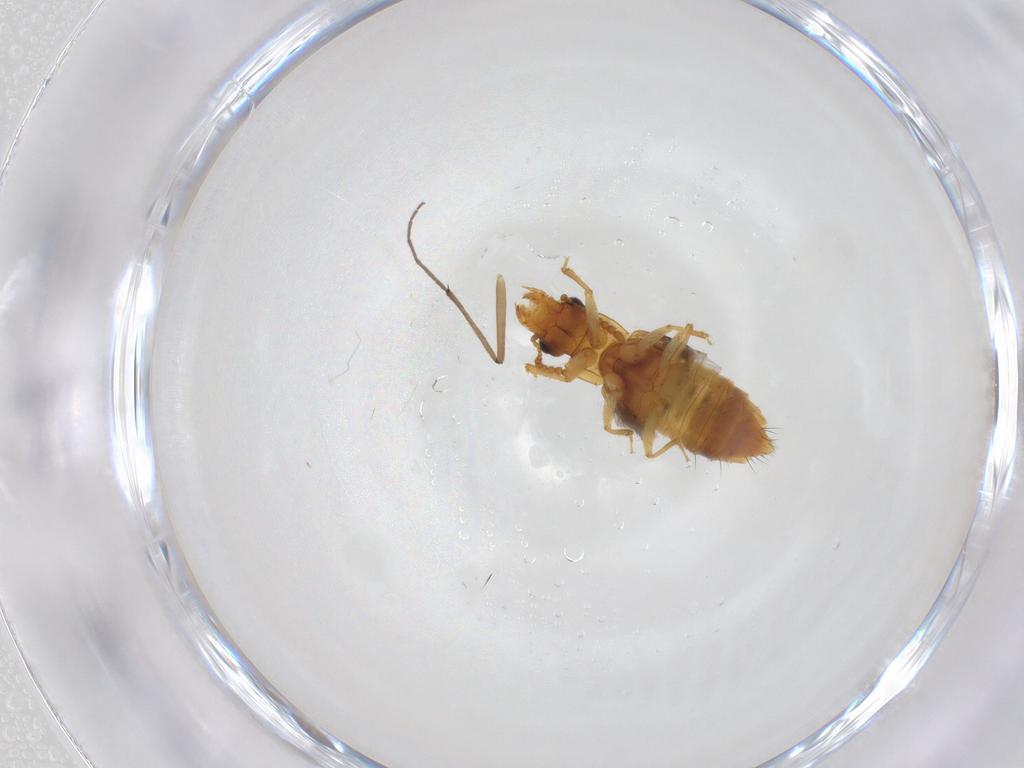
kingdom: Animalia
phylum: Arthropoda
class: Insecta
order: Coleoptera
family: Staphylinidae
